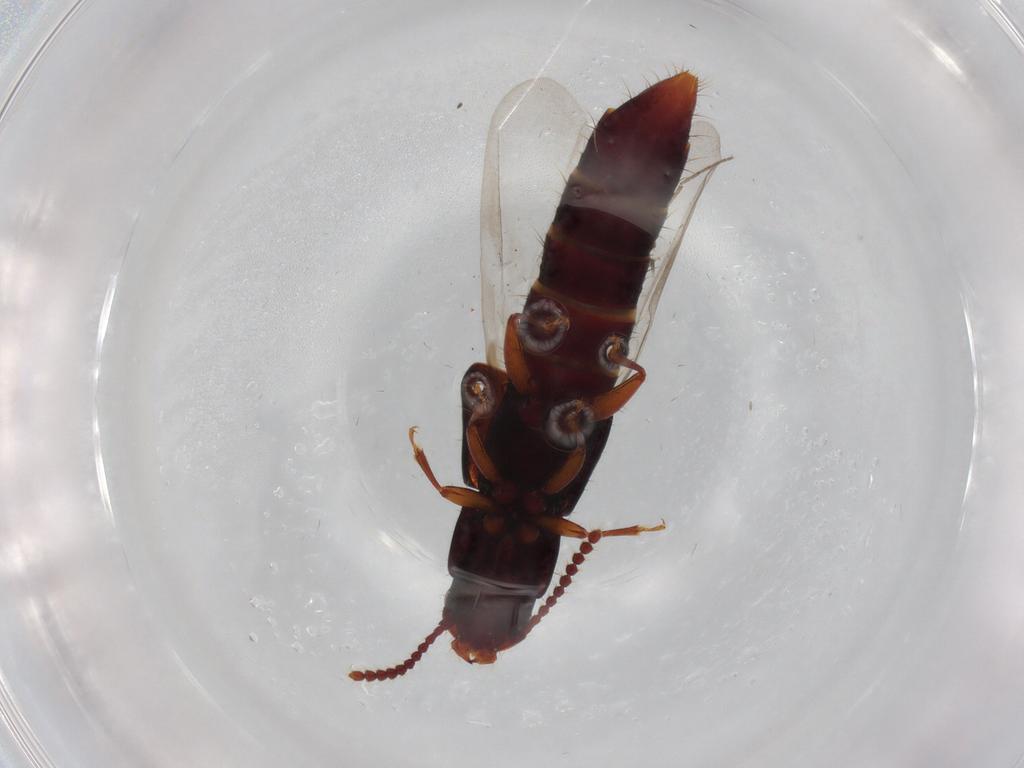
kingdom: Animalia
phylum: Arthropoda
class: Insecta
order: Coleoptera
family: Staphylinidae
